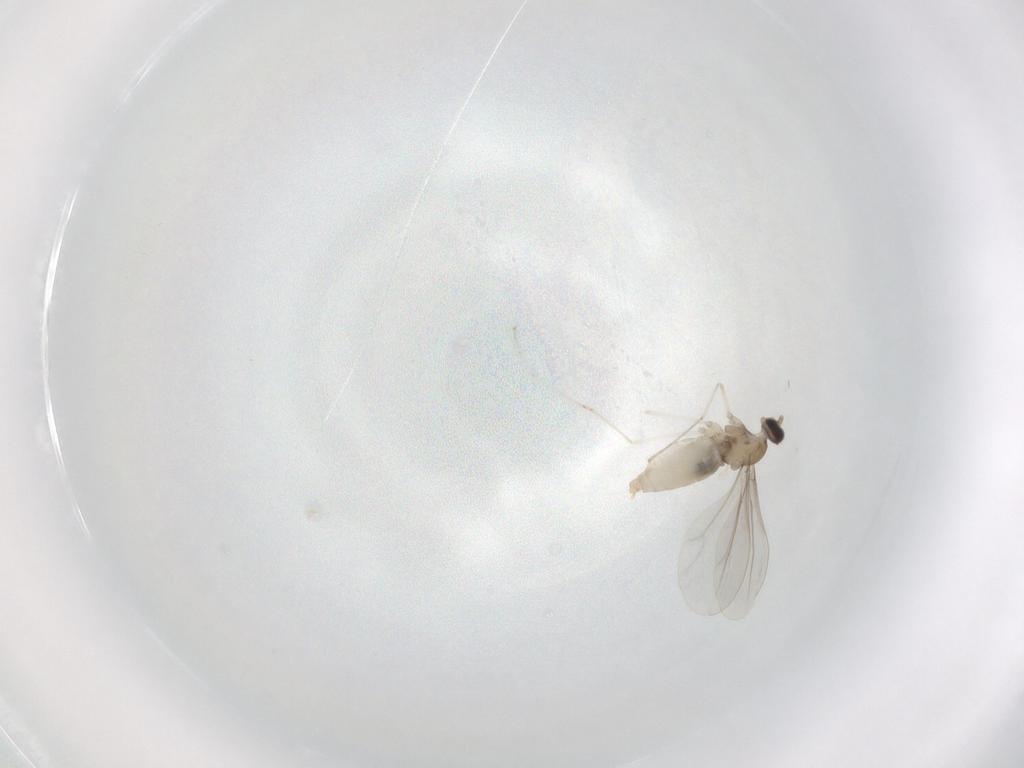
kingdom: Animalia
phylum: Arthropoda
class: Insecta
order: Diptera
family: Cecidomyiidae
